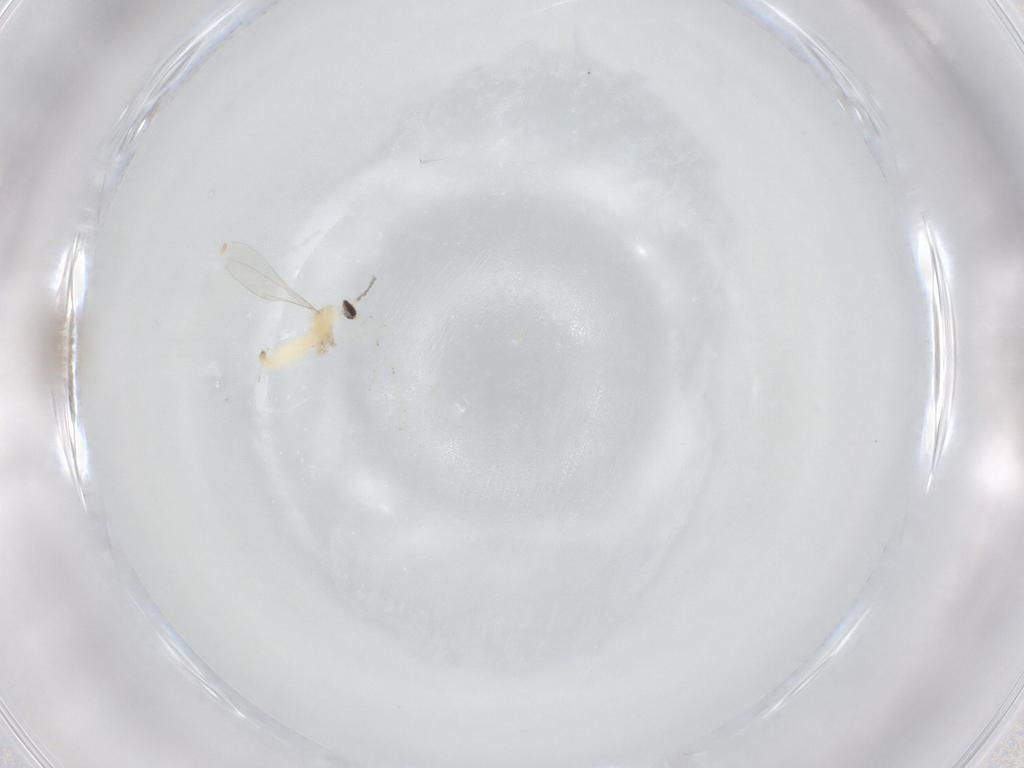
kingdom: Animalia
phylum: Arthropoda
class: Insecta
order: Diptera
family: Cecidomyiidae
